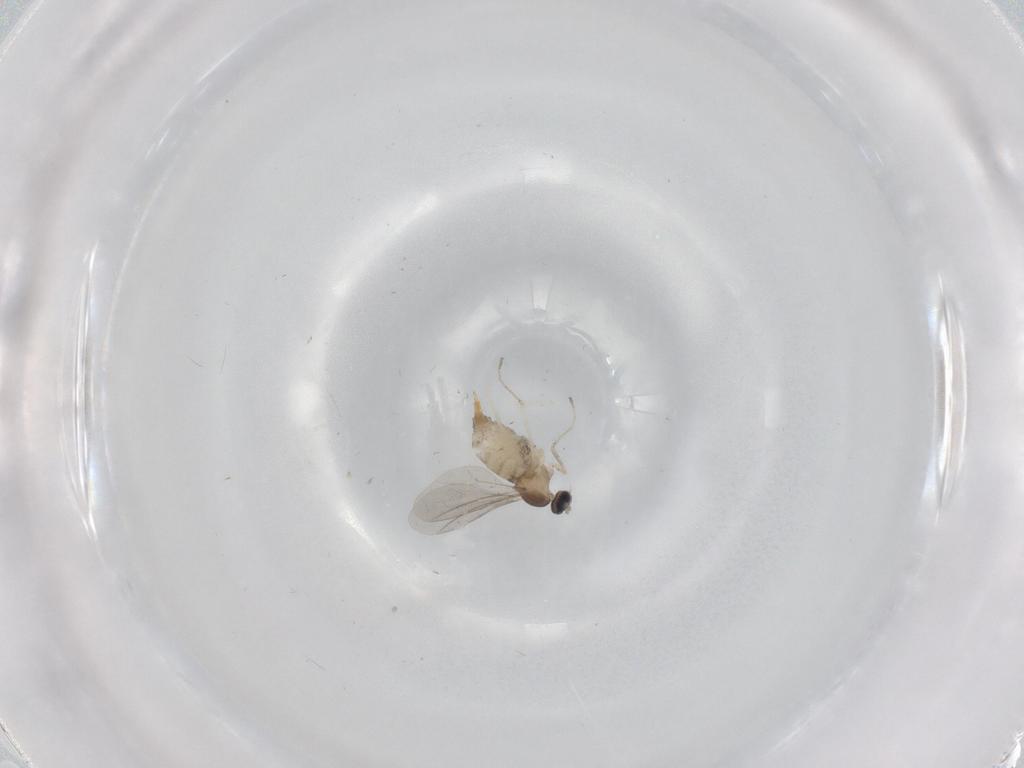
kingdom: Animalia
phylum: Arthropoda
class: Insecta
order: Diptera
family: Cecidomyiidae
